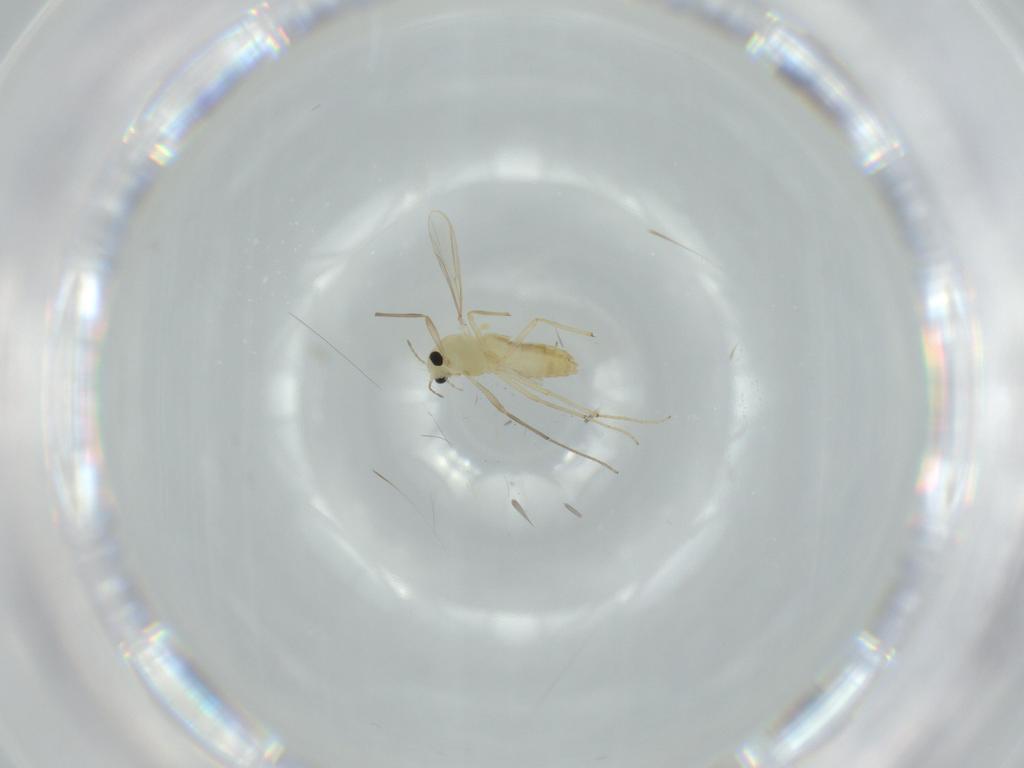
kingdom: Animalia
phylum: Arthropoda
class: Insecta
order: Diptera
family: Chironomidae
